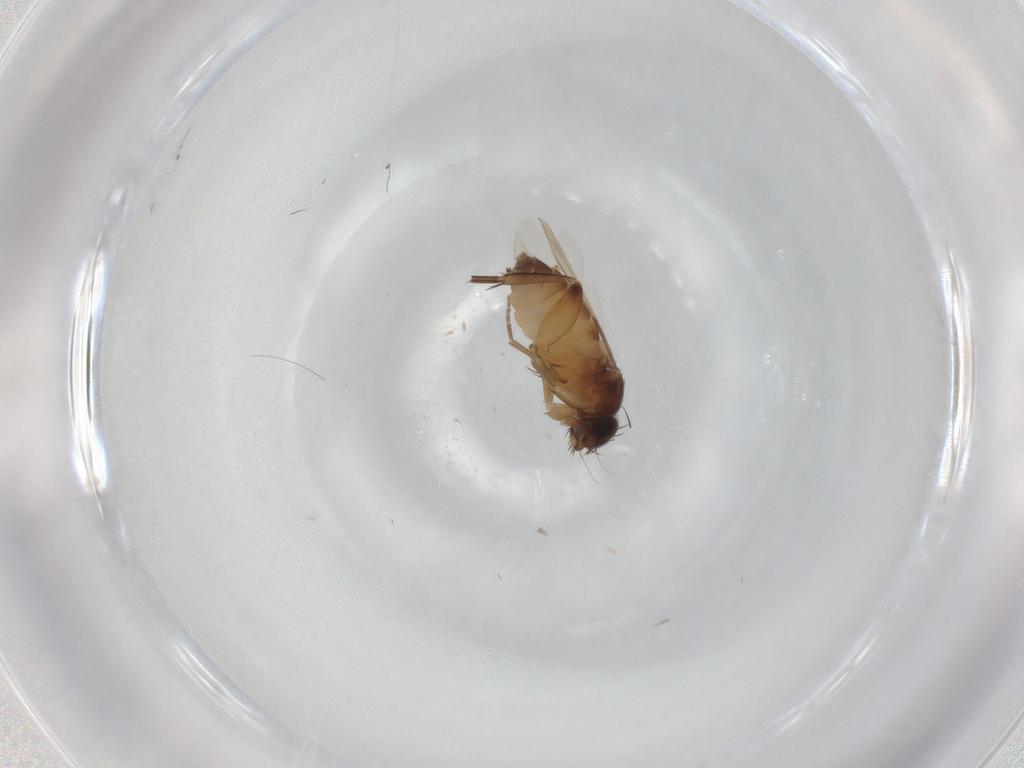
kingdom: Animalia
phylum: Arthropoda
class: Insecta
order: Diptera
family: Phoridae
